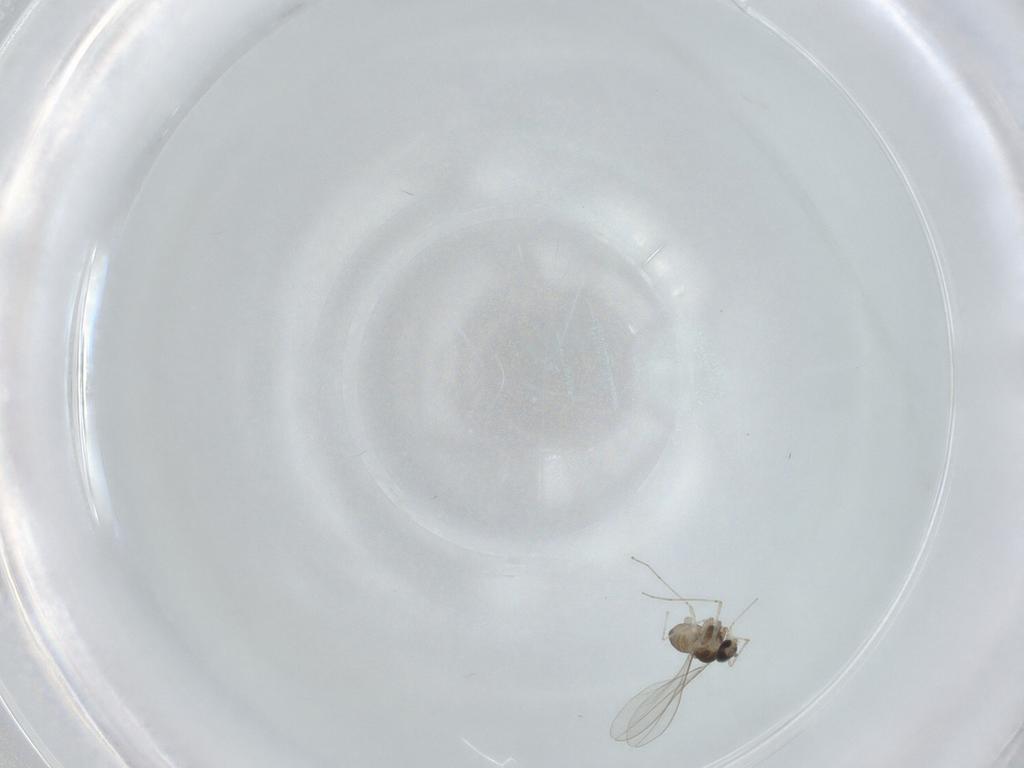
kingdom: Animalia
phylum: Arthropoda
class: Insecta
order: Diptera
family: Cecidomyiidae
